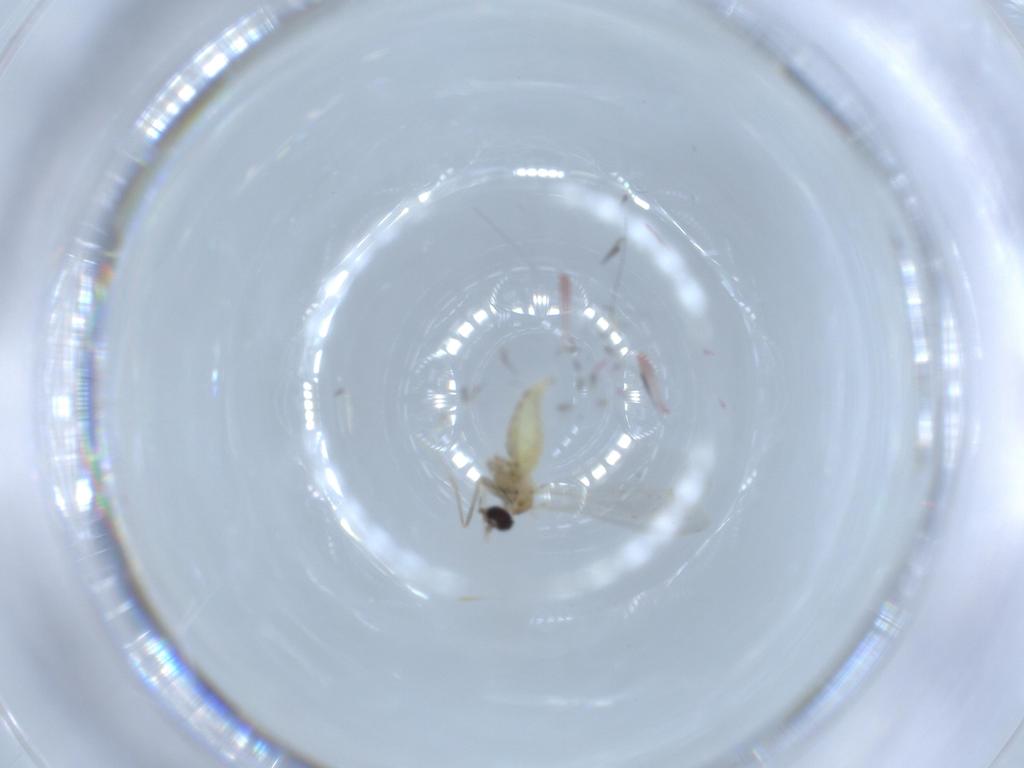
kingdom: Animalia
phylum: Arthropoda
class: Insecta
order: Diptera
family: Cecidomyiidae
